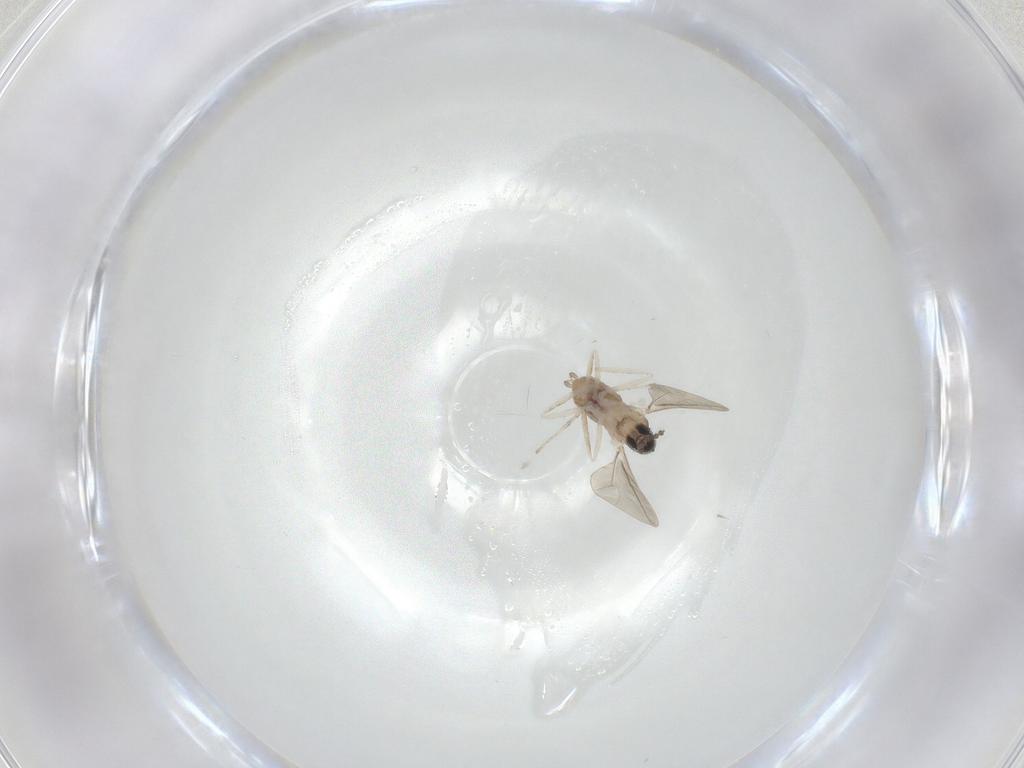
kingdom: Animalia
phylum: Arthropoda
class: Insecta
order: Diptera
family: Cecidomyiidae
